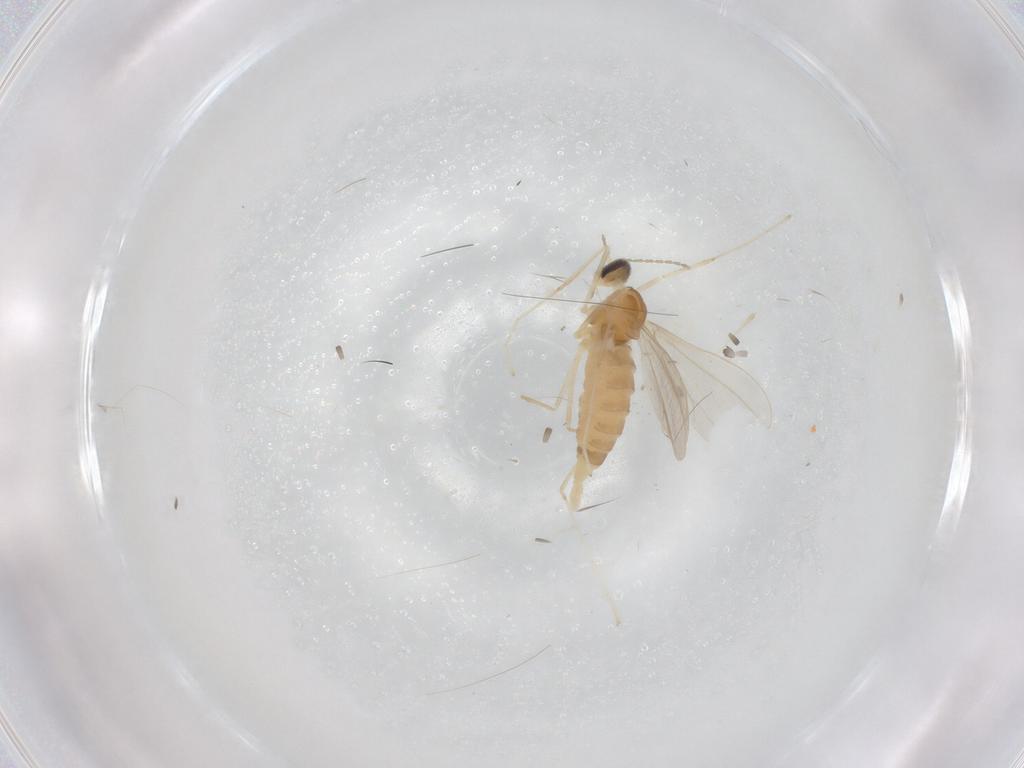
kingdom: Animalia
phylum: Arthropoda
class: Insecta
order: Diptera
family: Cecidomyiidae
